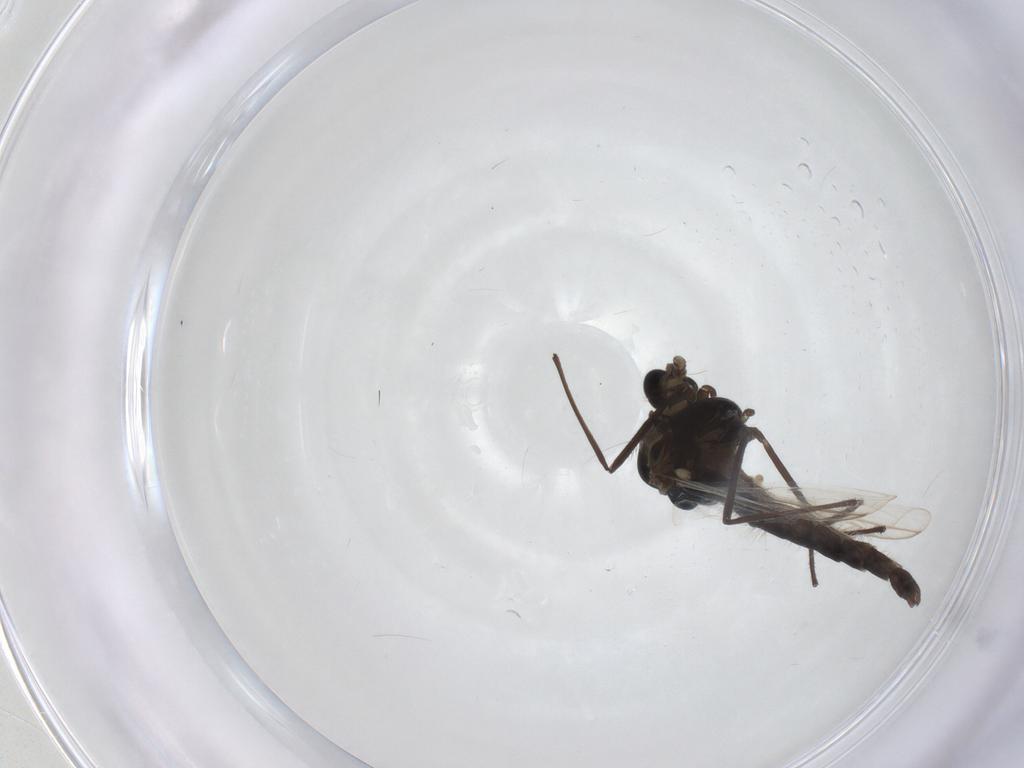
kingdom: Animalia
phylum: Arthropoda
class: Insecta
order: Diptera
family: Chironomidae
